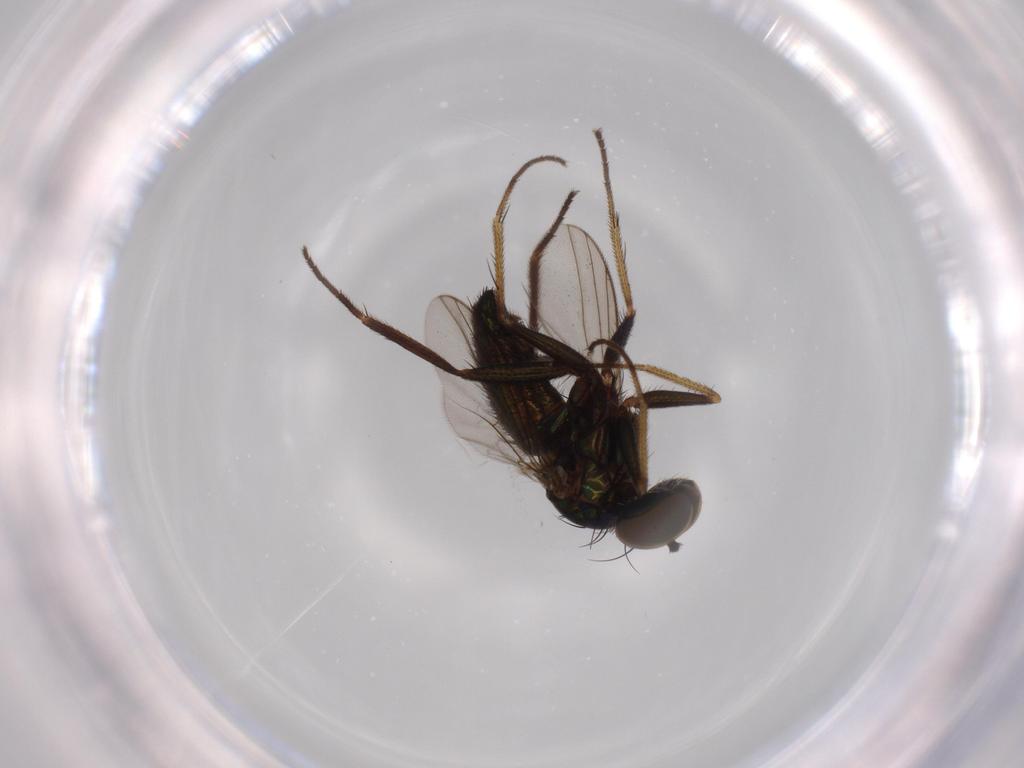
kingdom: Animalia
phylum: Arthropoda
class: Insecta
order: Diptera
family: Dolichopodidae
